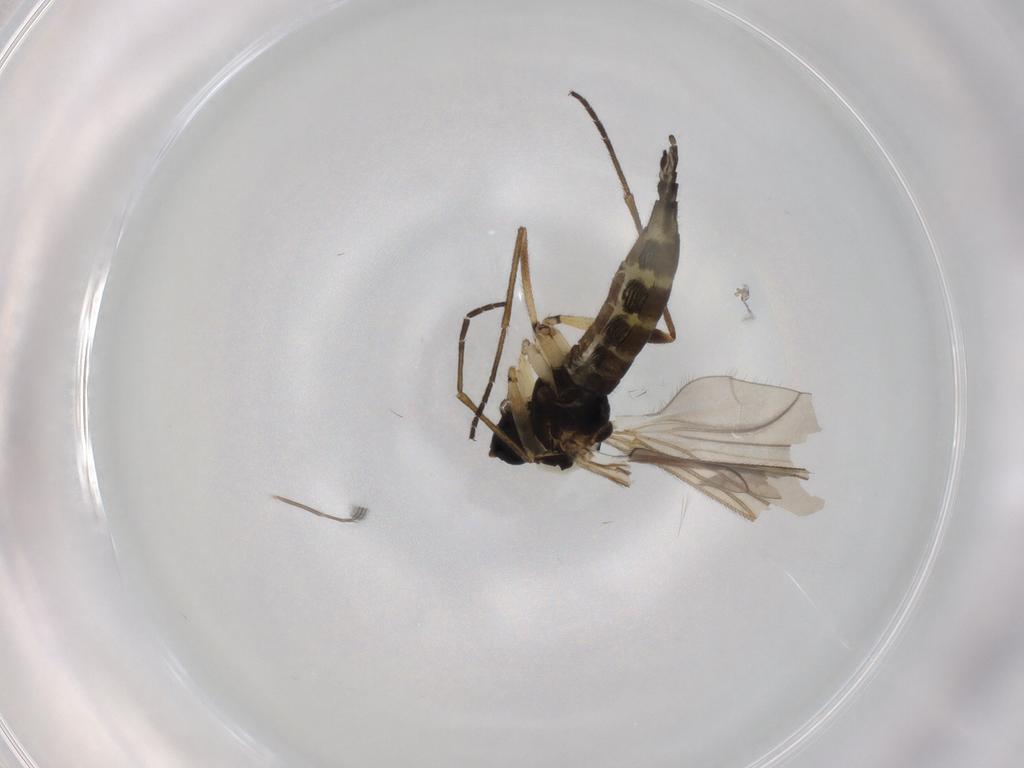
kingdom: Animalia
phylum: Arthropoda
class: Insecta
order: Diptera
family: Sciaridae
